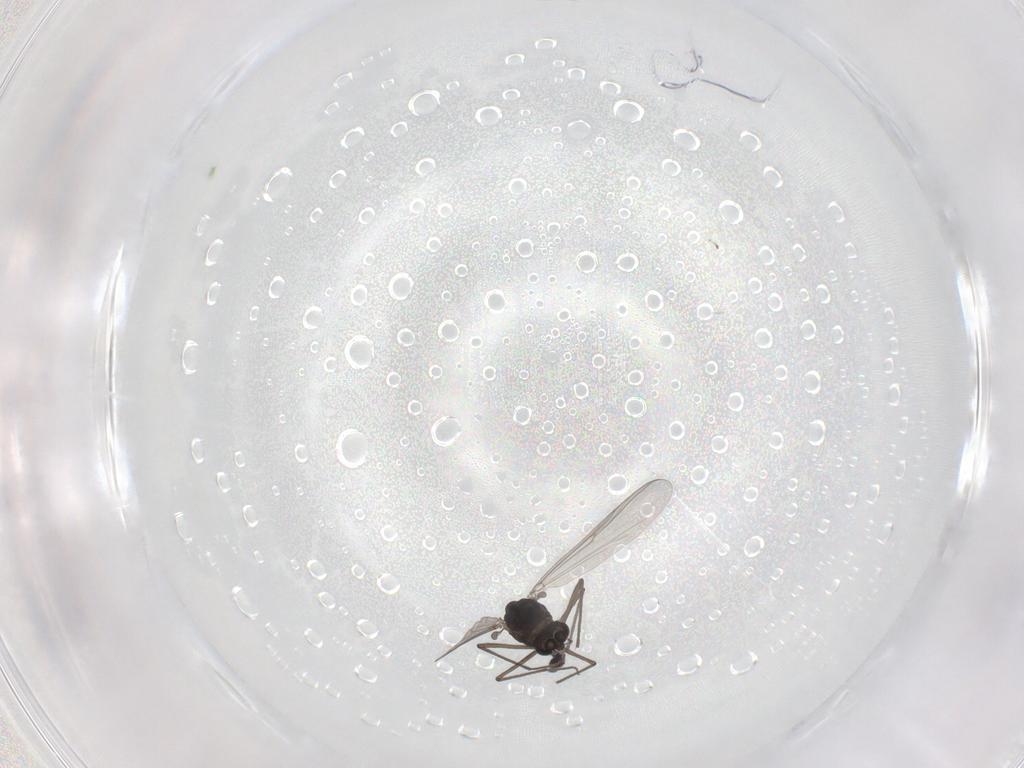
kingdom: Animalia
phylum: Arthropoda
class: Insecta
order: Diptera
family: Chironomidae
